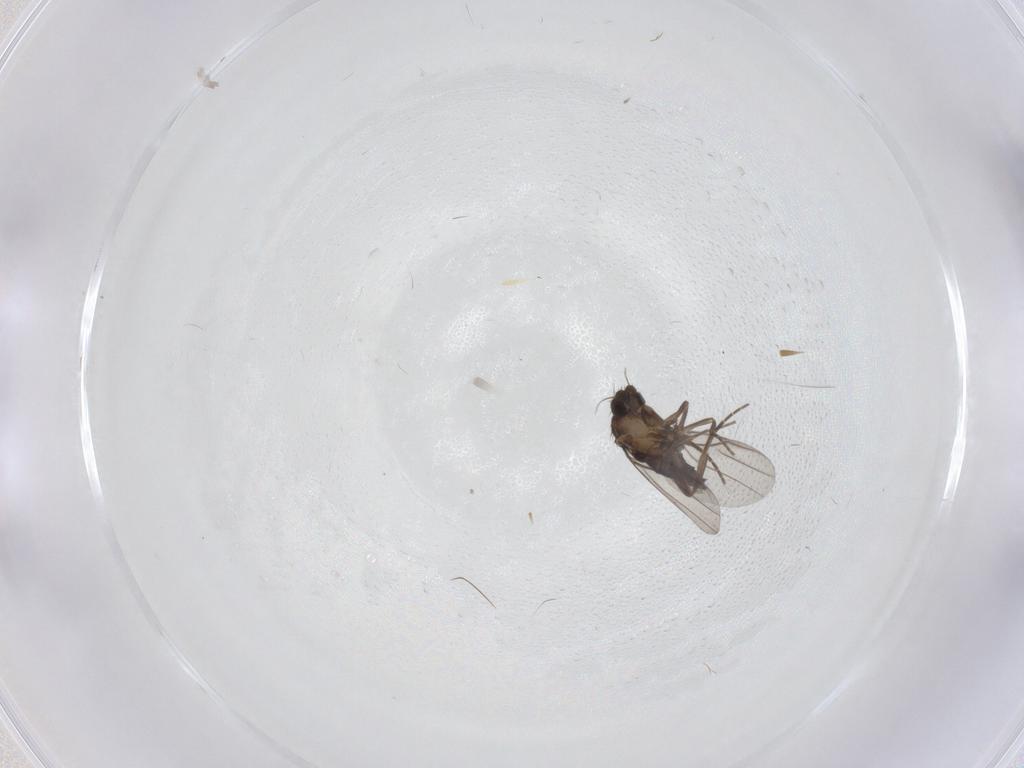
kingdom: Animalia
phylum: Arthropoda
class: Insecta
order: Diptera
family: Phoridae
